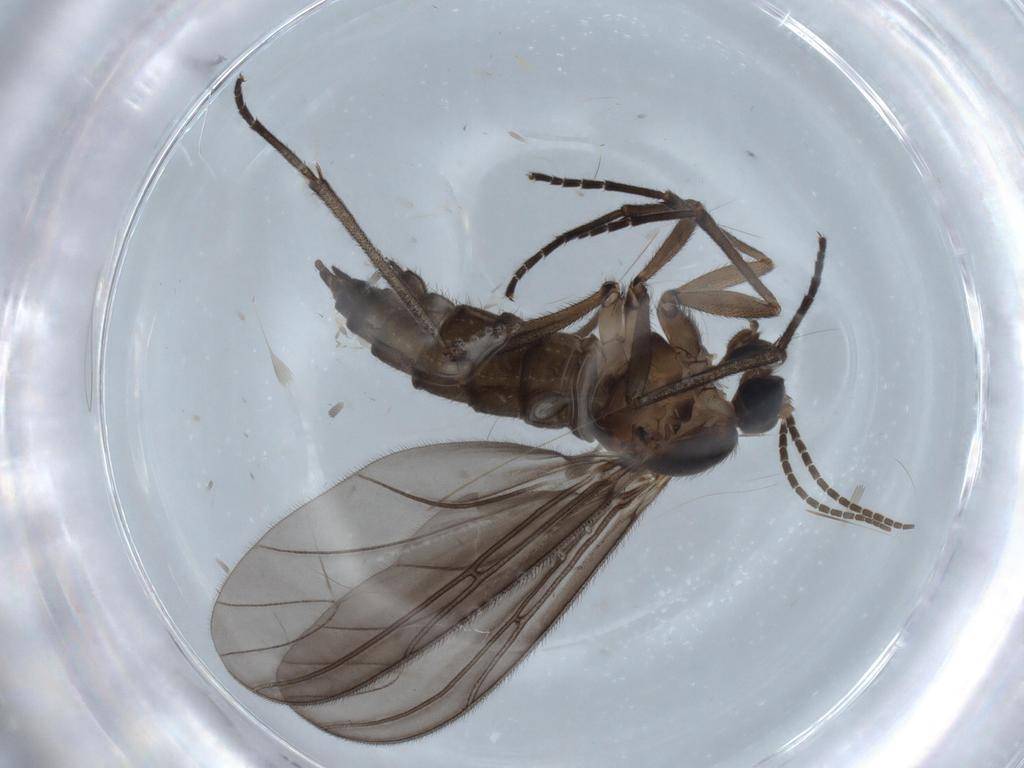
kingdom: Animalia
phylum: Arthropoda
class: Insecta
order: Diptera
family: Sciaridae
